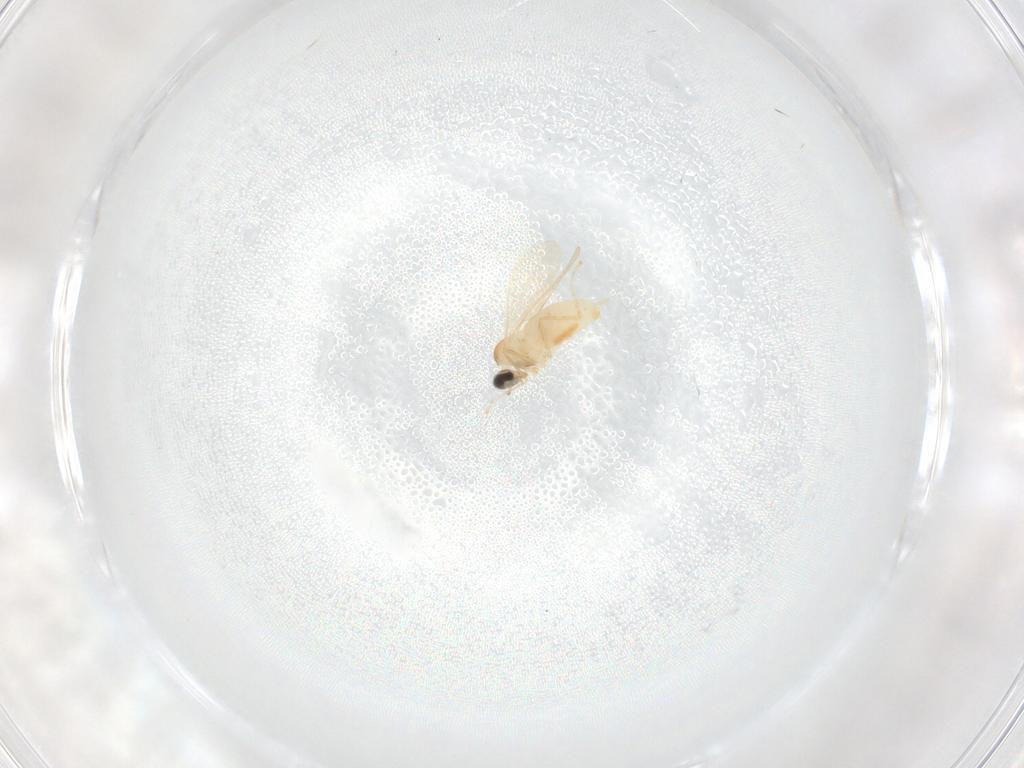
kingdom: Animalia
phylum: Arthropoda
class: Insecta
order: Diptera
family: Cecidomyiidae
